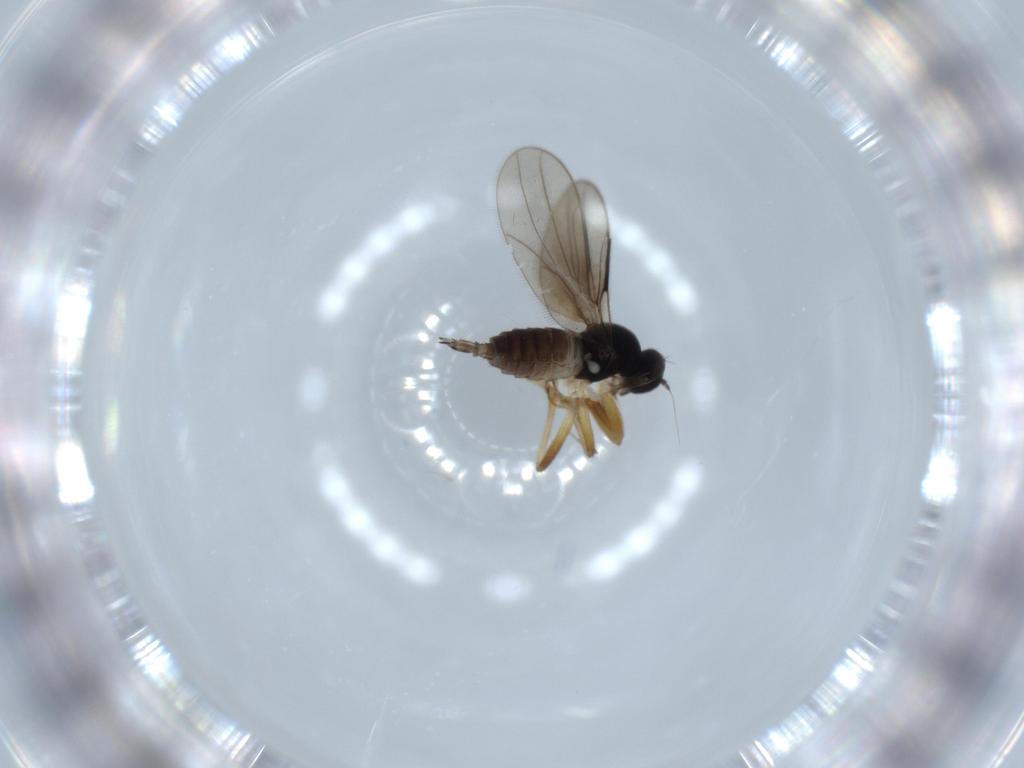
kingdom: Animalia
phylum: Arthropoda
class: Insecta
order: Diptera
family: Hybotidae
